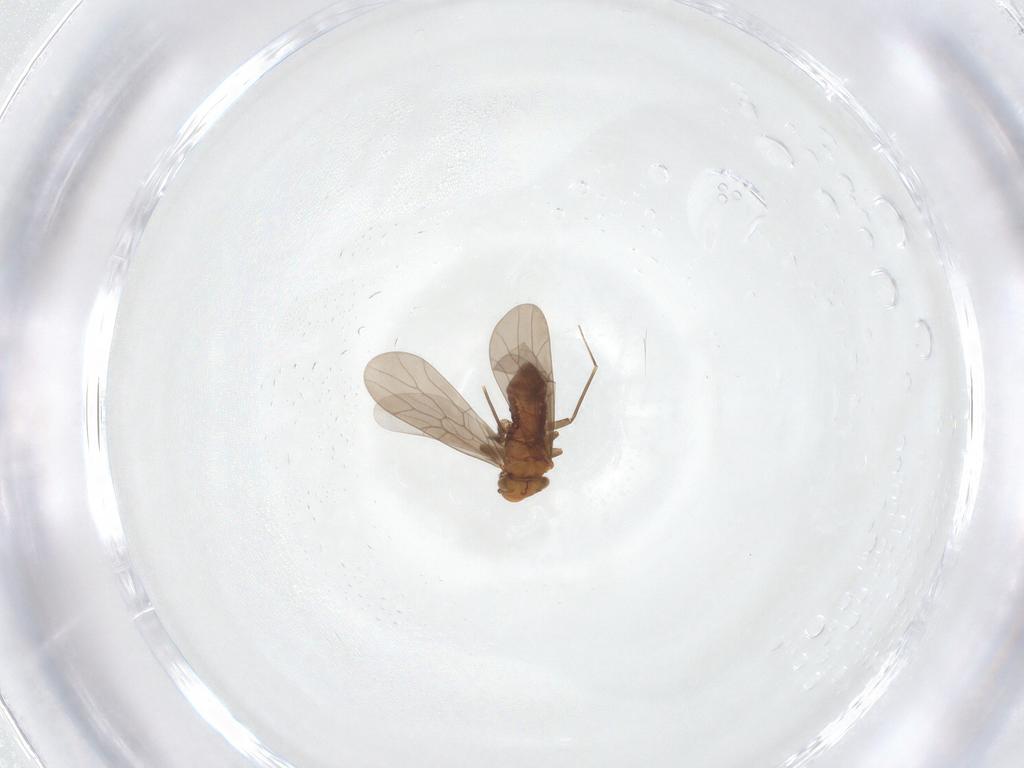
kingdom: Animalia
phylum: Arthropoda
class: Insecta
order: Psocodea
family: Lepidopsocidae
